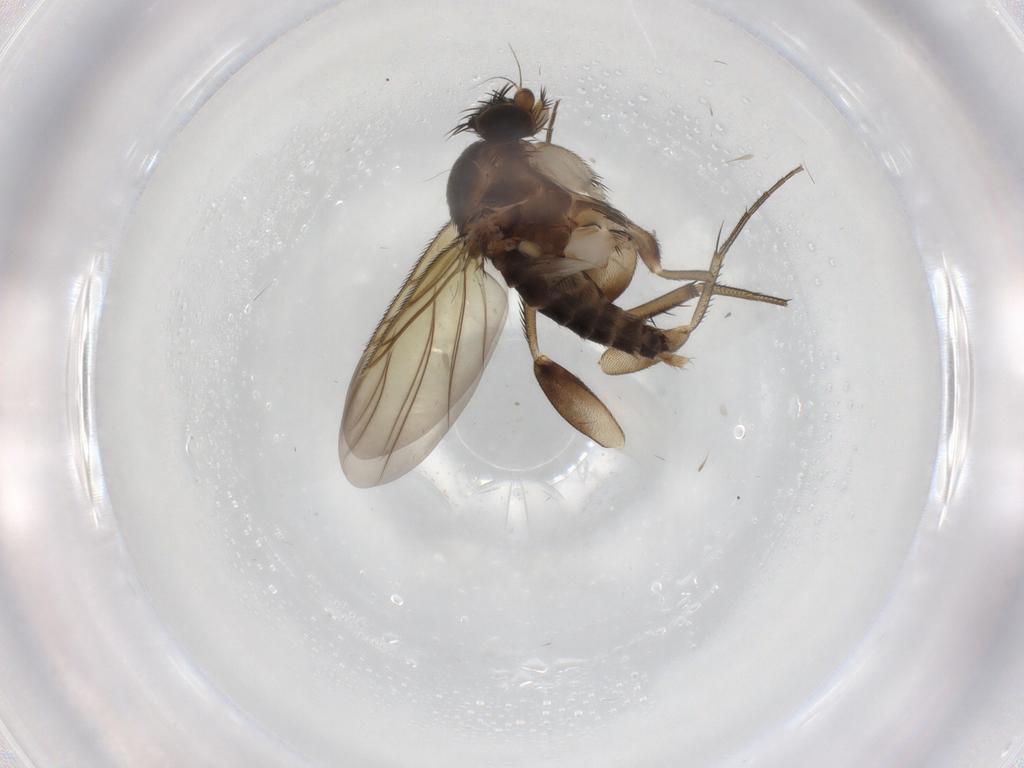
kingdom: Animalia
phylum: Arthropoda
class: Insecta
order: Diptera
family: Phoridae
